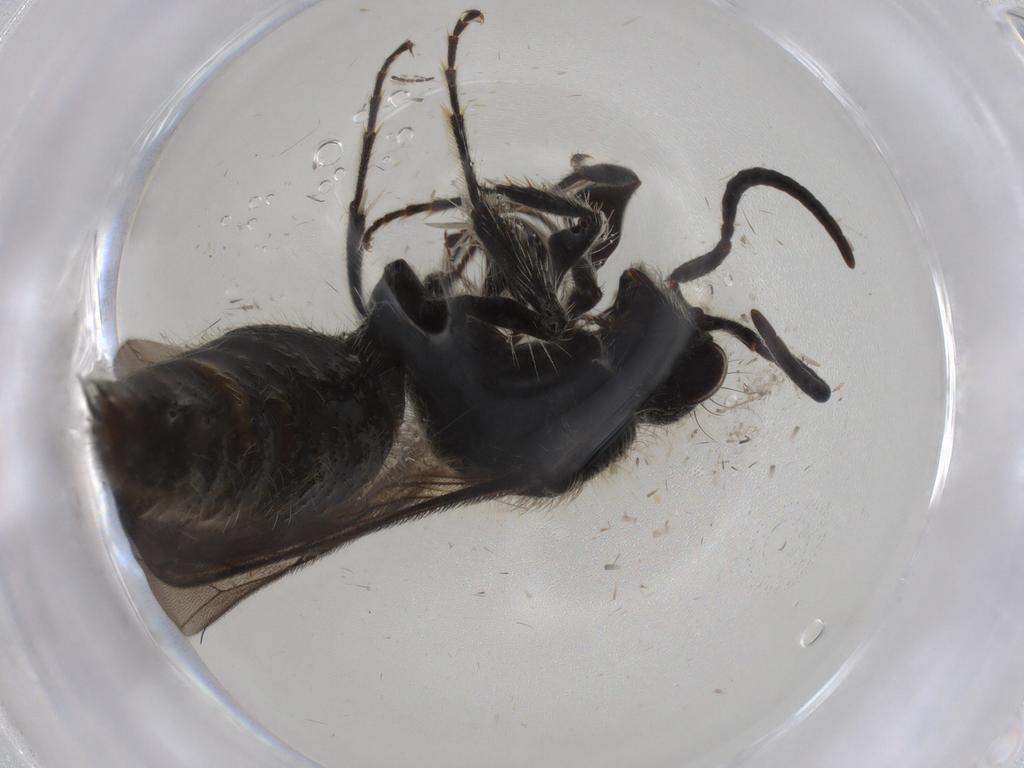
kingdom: Animalia
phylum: Arthropoda
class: Insecta
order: Hymenoptera
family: Mutillidae
